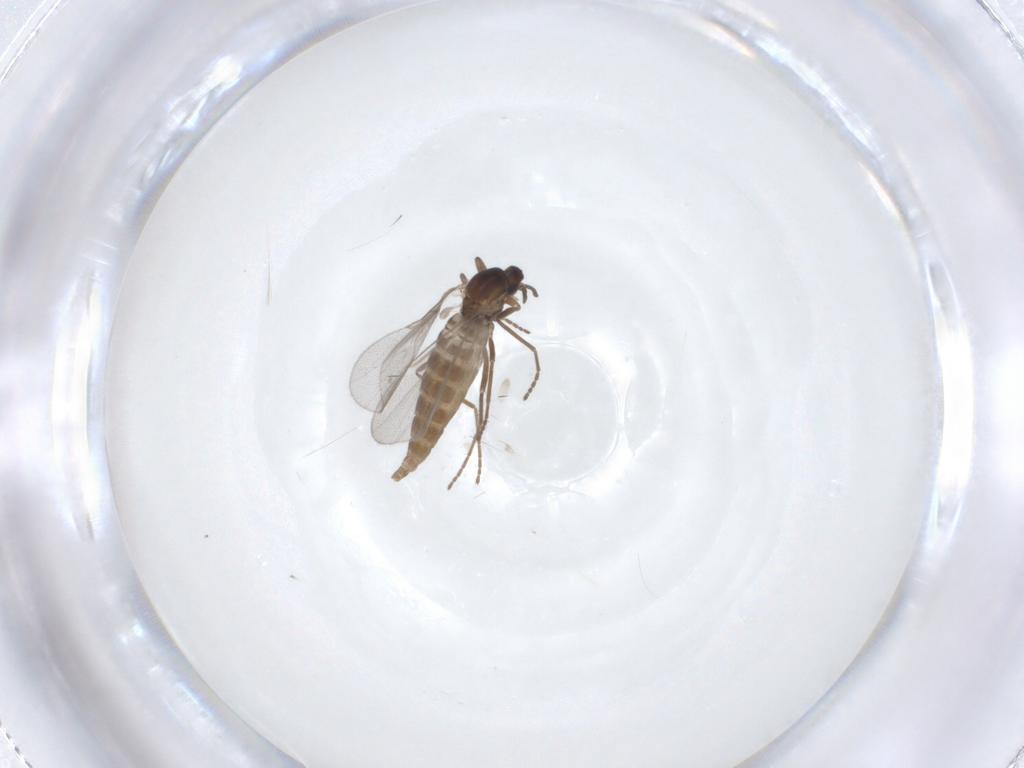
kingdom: Animalia
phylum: Arthropoda
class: Insecta
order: Diptera
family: Cecidomyiidae
